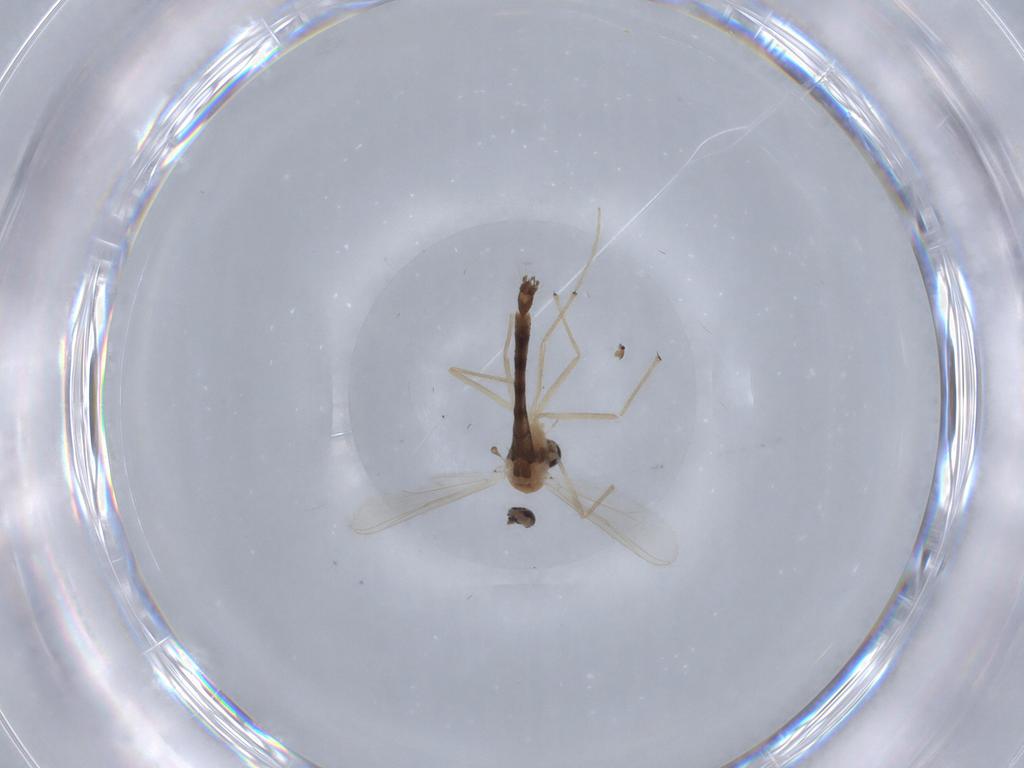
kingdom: Animalia
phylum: Arthropoda
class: Insecta
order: Diptera
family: Chironomidae
